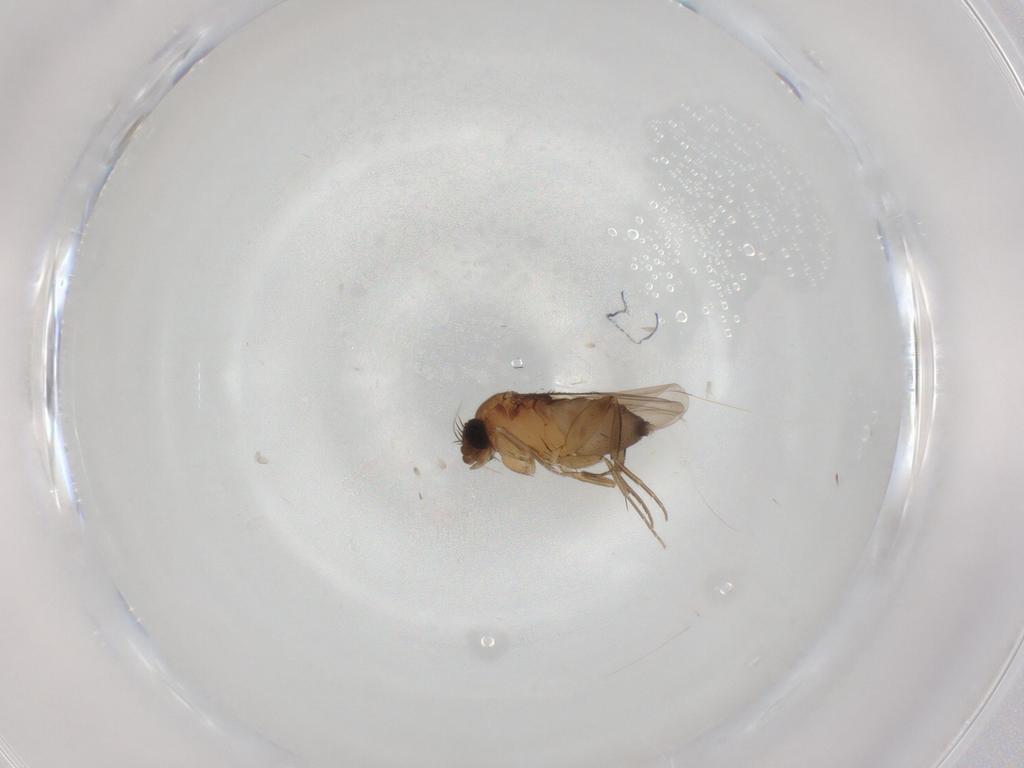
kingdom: Animalia
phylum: Arthropoda
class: Insecta
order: Diptera
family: Phoridae
